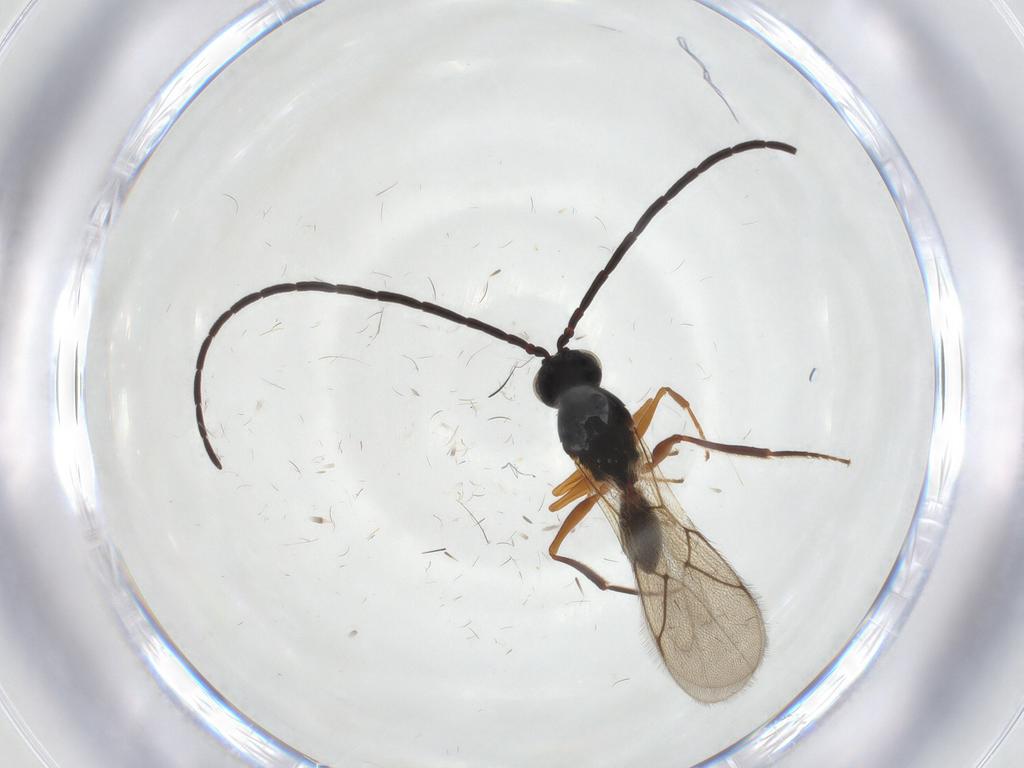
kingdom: Animalia
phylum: Arthropoda
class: Insecta
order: Hymenoptera
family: Figitidae
